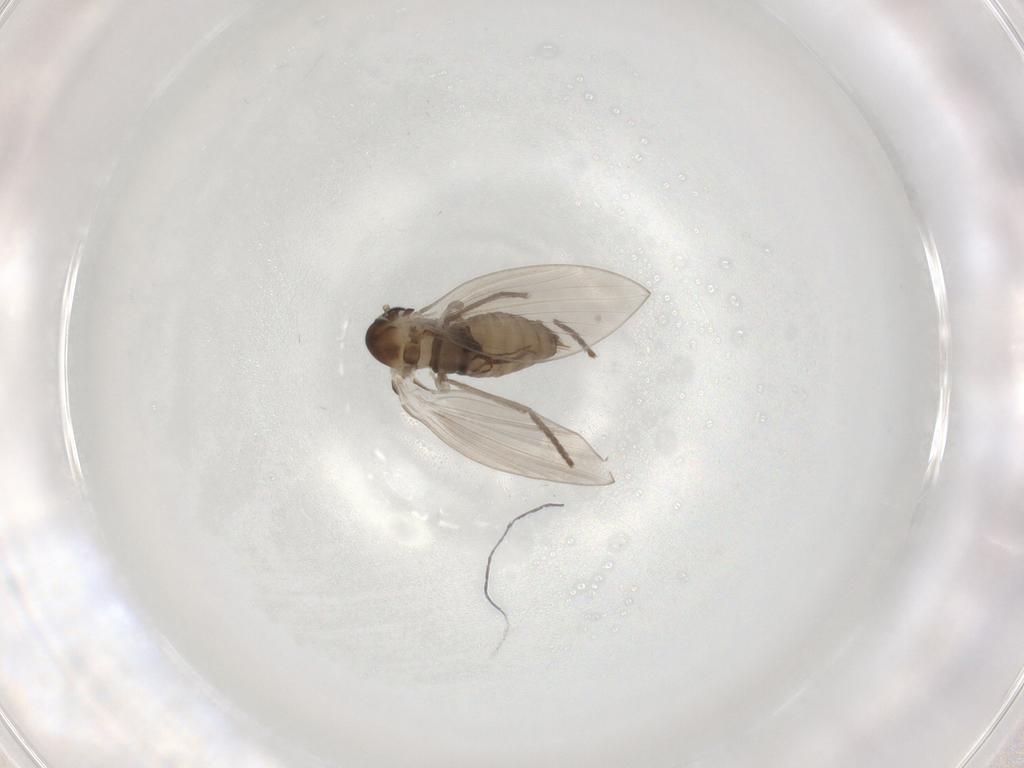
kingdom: Animalia
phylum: Arthropoda
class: Insecta
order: Diptera
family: Psychodidae
